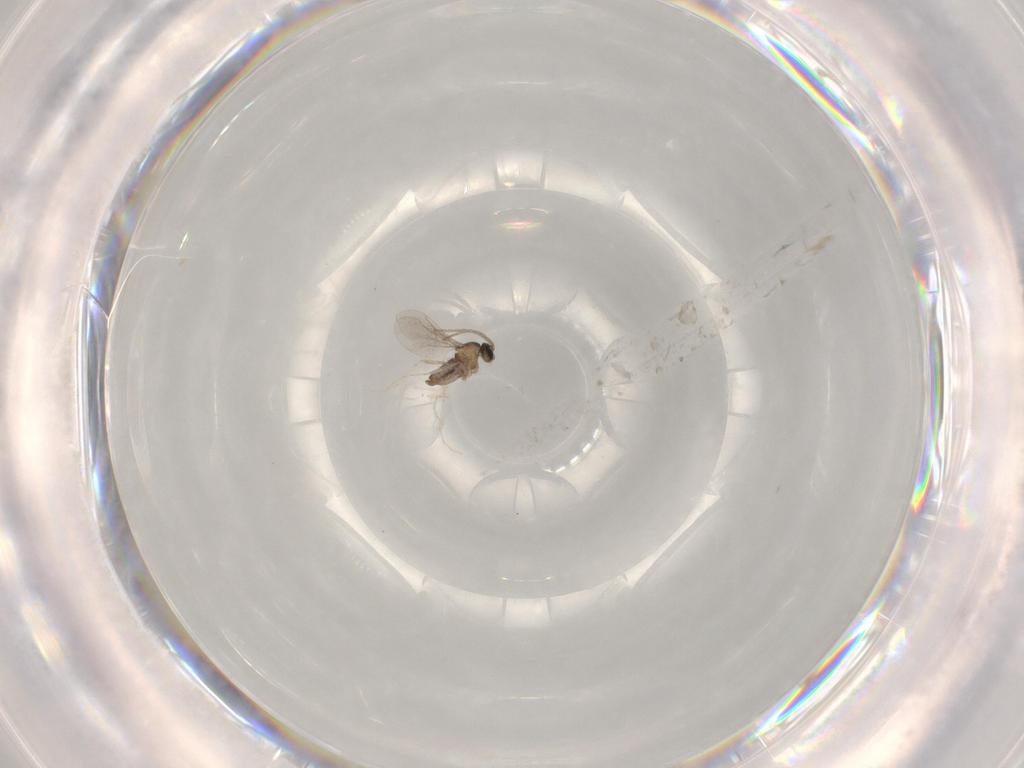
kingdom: Animalia
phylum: Arthropoda
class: Insecta
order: Diptera
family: Cecidomyiidae
